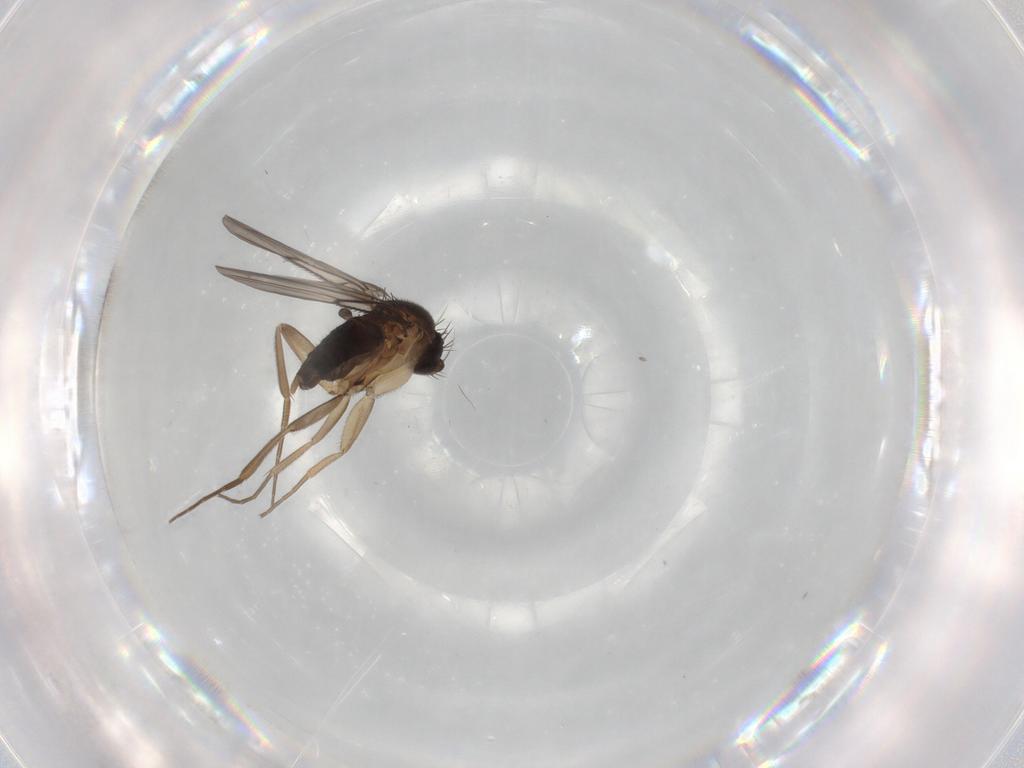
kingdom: Animalia
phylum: Arthropoda
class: Insecta
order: Diptera
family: Phoridae
